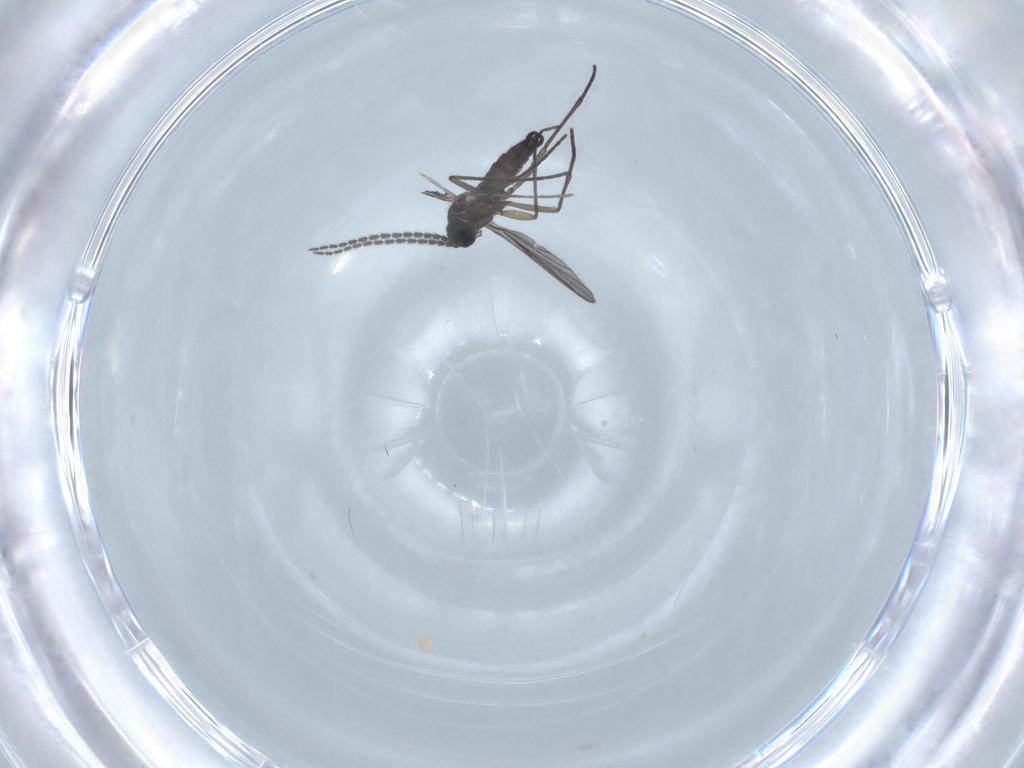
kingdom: Animalia
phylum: Arthropoda
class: Insecta
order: Diptera
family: Sciaridae
